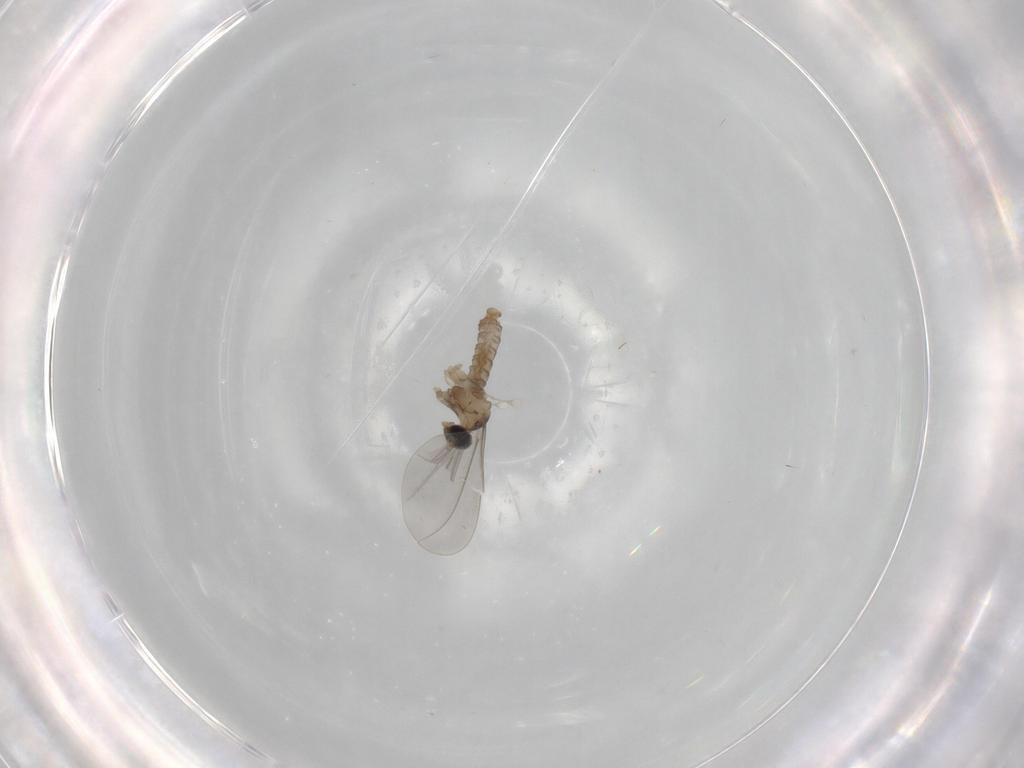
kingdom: Animalia
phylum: Arthropoda
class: Insecta
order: Diptera
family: Cecidomyiidae
